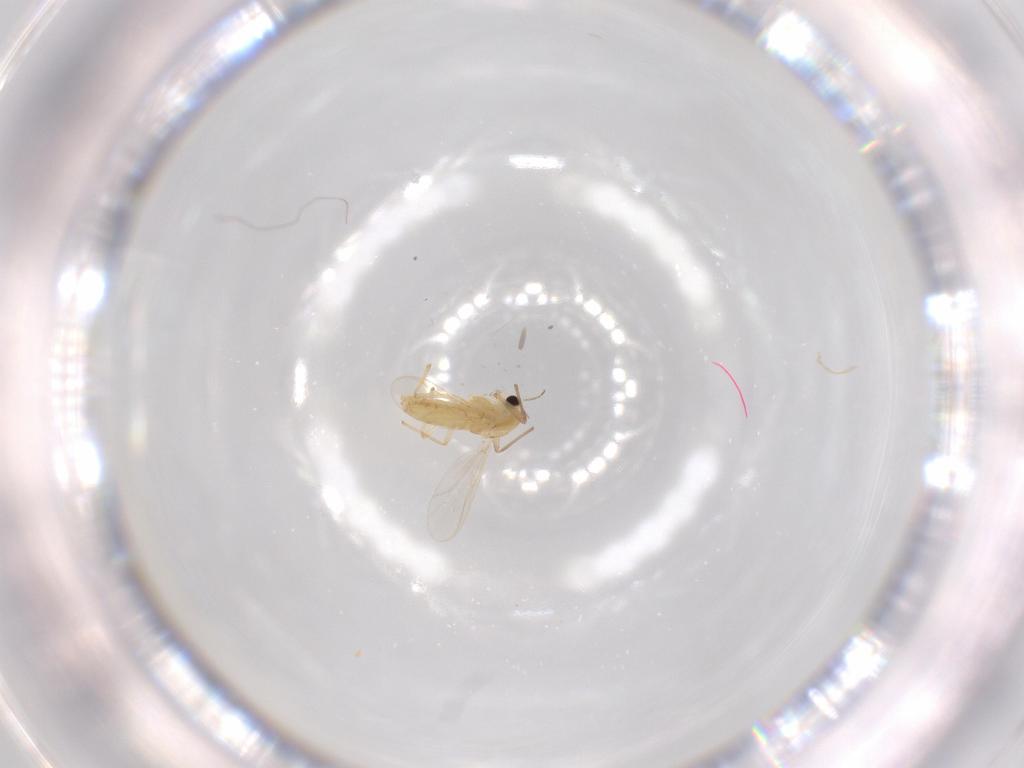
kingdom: Animalia
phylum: Arthropoda
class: Insecta
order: Diptera
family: Chironomidae
